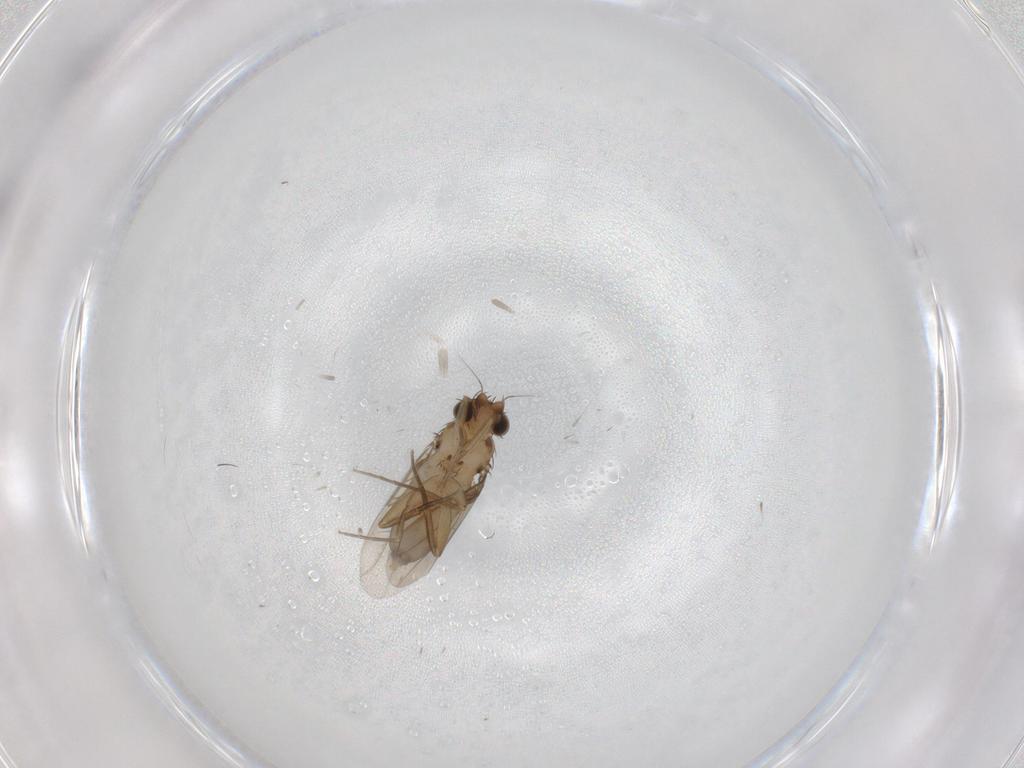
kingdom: Animalia
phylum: Arthropoda
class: Insecta
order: Diptera
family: Phoridae
